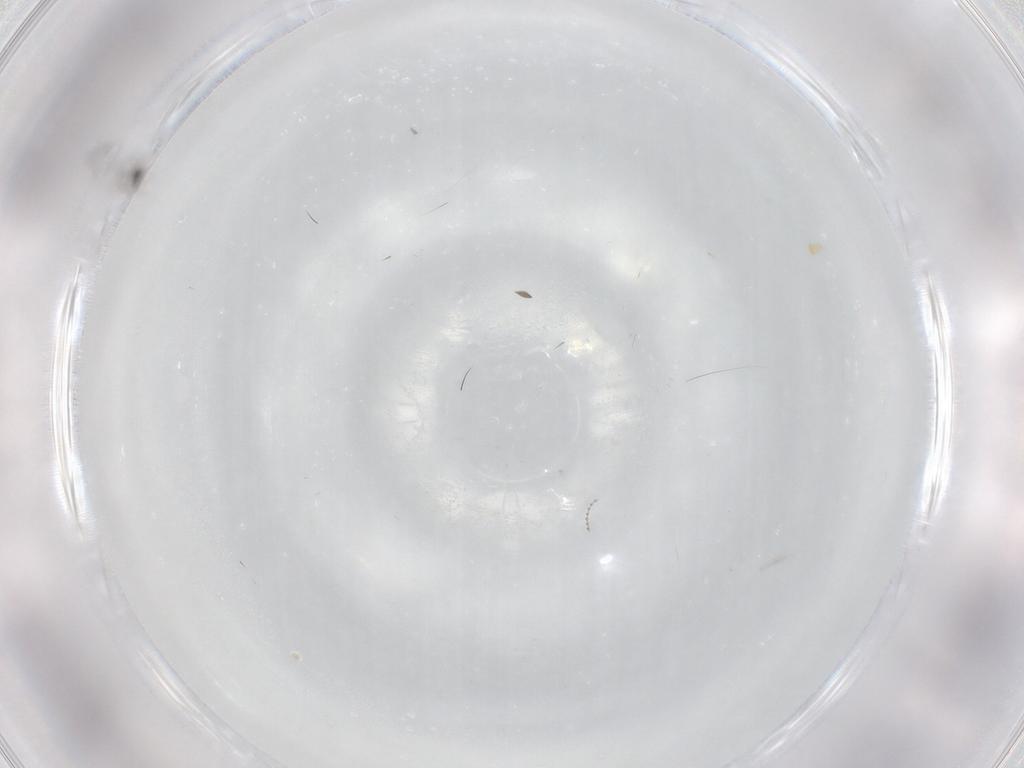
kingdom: Animalia
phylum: Arthropoda
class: Insecta
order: Diptera
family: Cecidomyiidae
